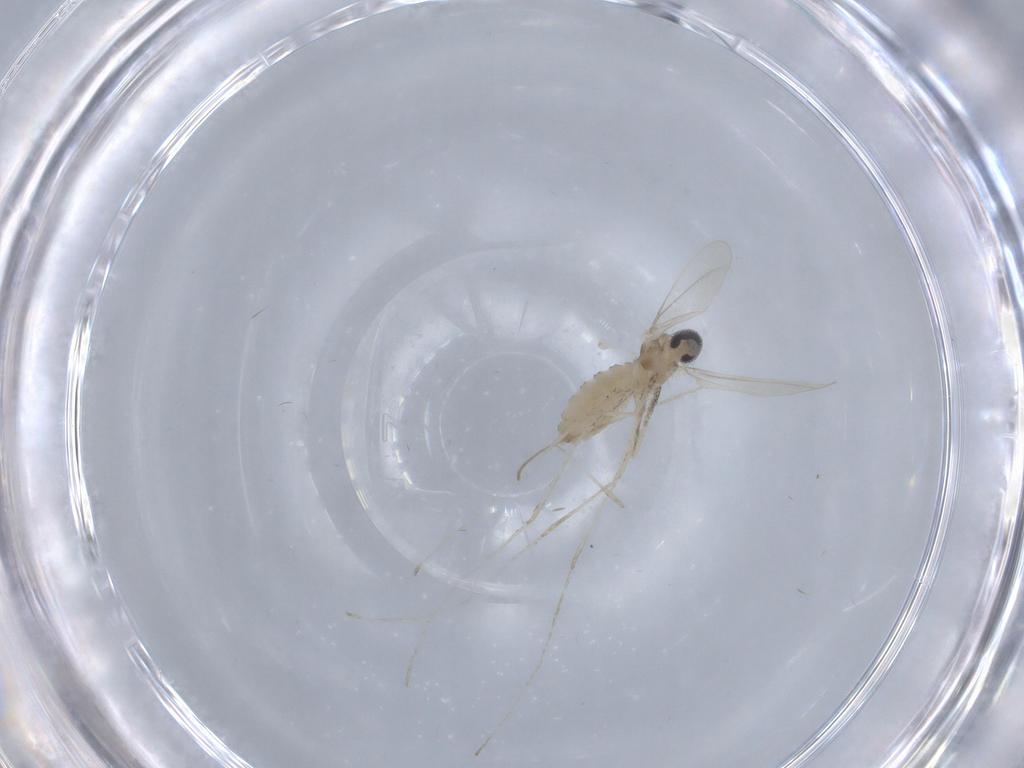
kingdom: Animalia
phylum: Arthropoda
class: Insecta
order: Diptera
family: Cecidomyiidae
